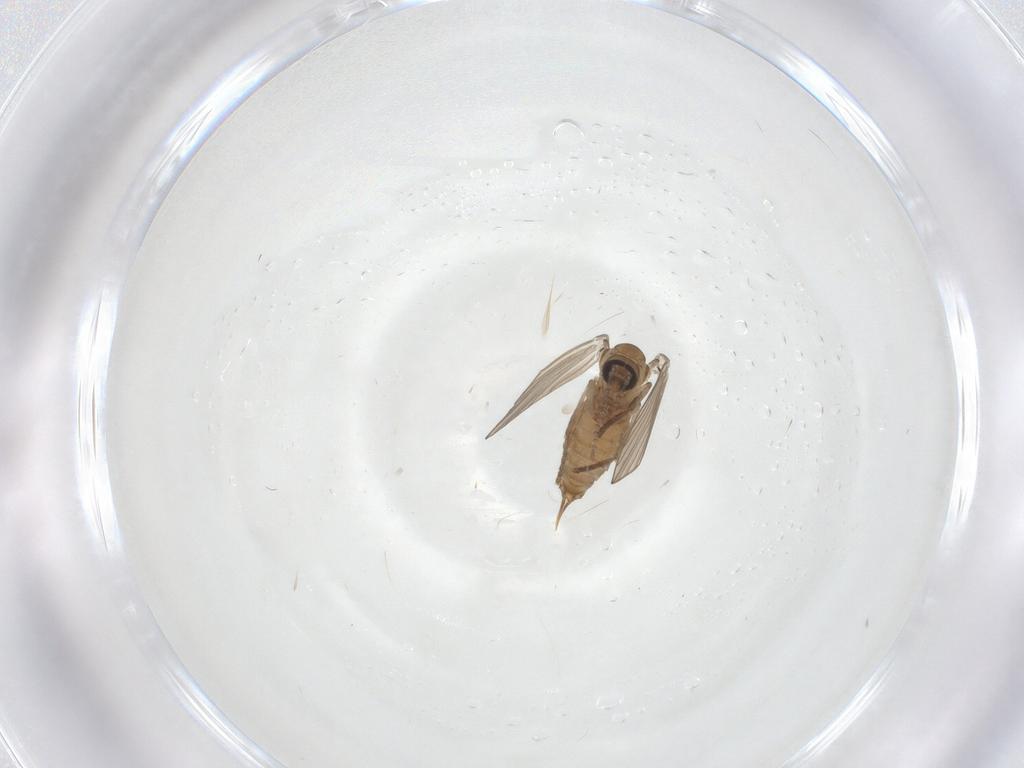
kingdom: Animalia
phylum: Arthropoda
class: Insecta
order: Diptera
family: Psychodidae
